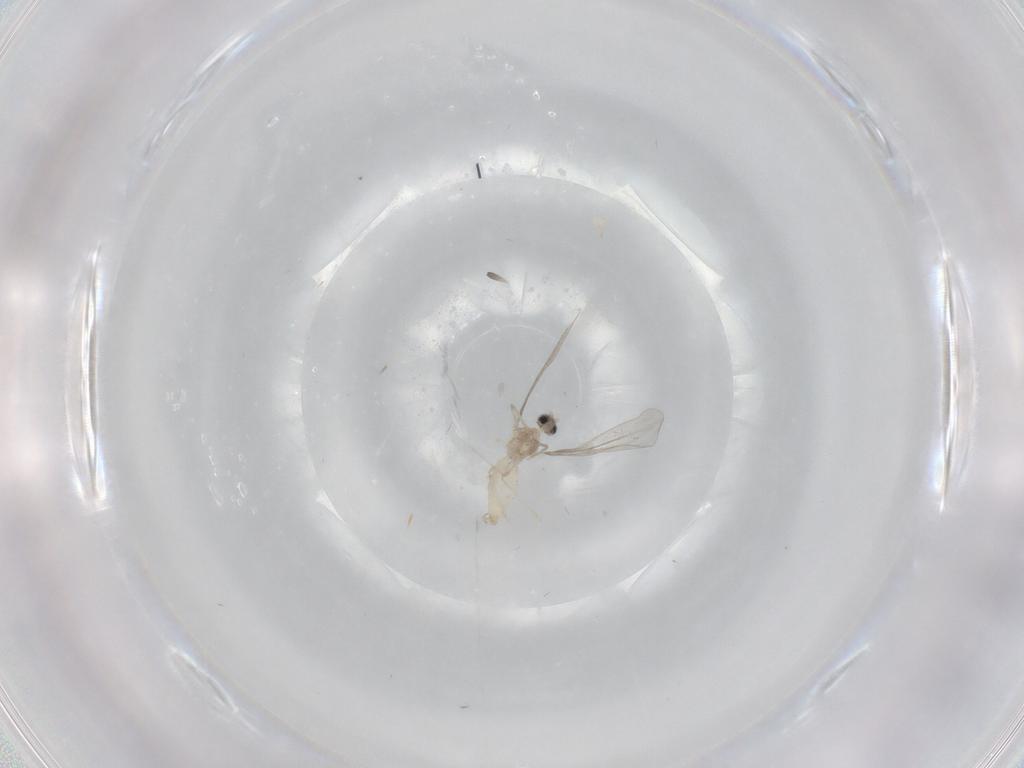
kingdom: Animalia
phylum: Arthropoda
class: Insecta
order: Diptera
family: Cecidomyiidae
